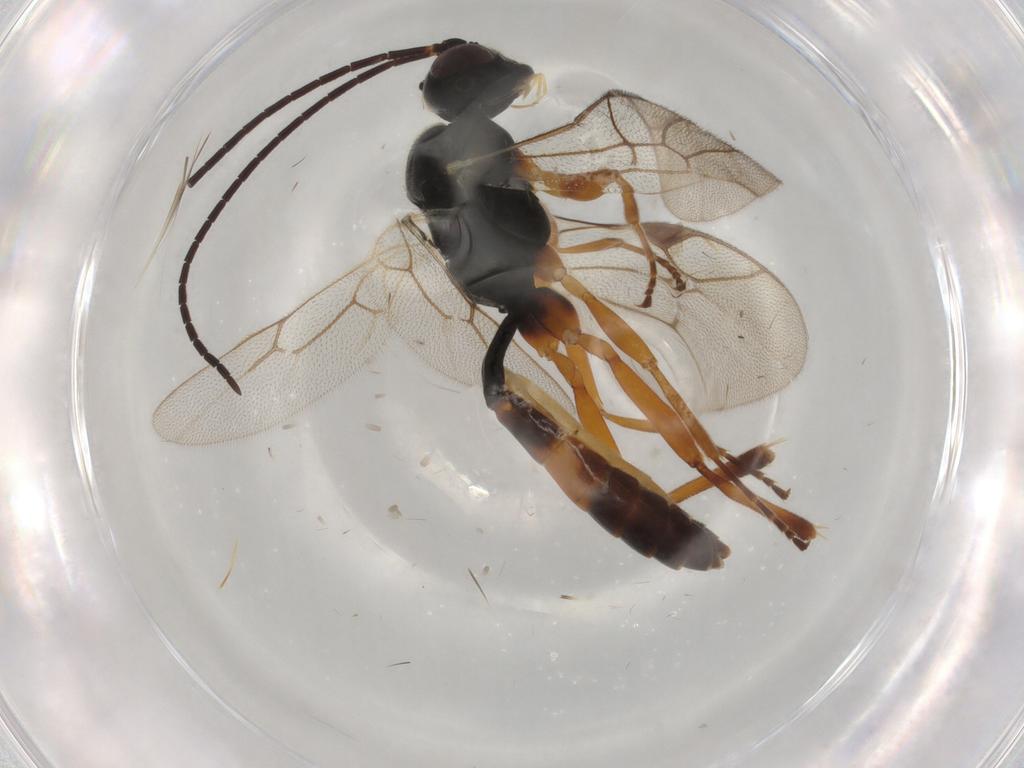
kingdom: Animalia
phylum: Arthropoda
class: Insecta
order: Hymenoptera
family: Ichneumonidae
